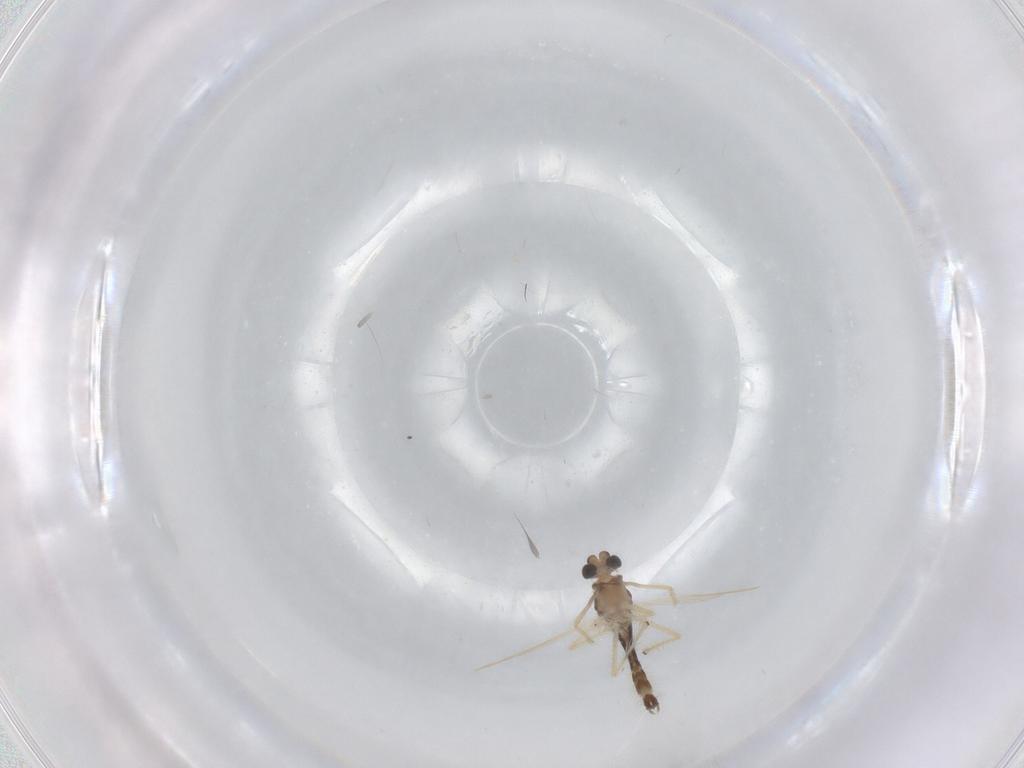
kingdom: Animalia
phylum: Arthropoda
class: Insecta
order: Diptera
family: Chironomidae
